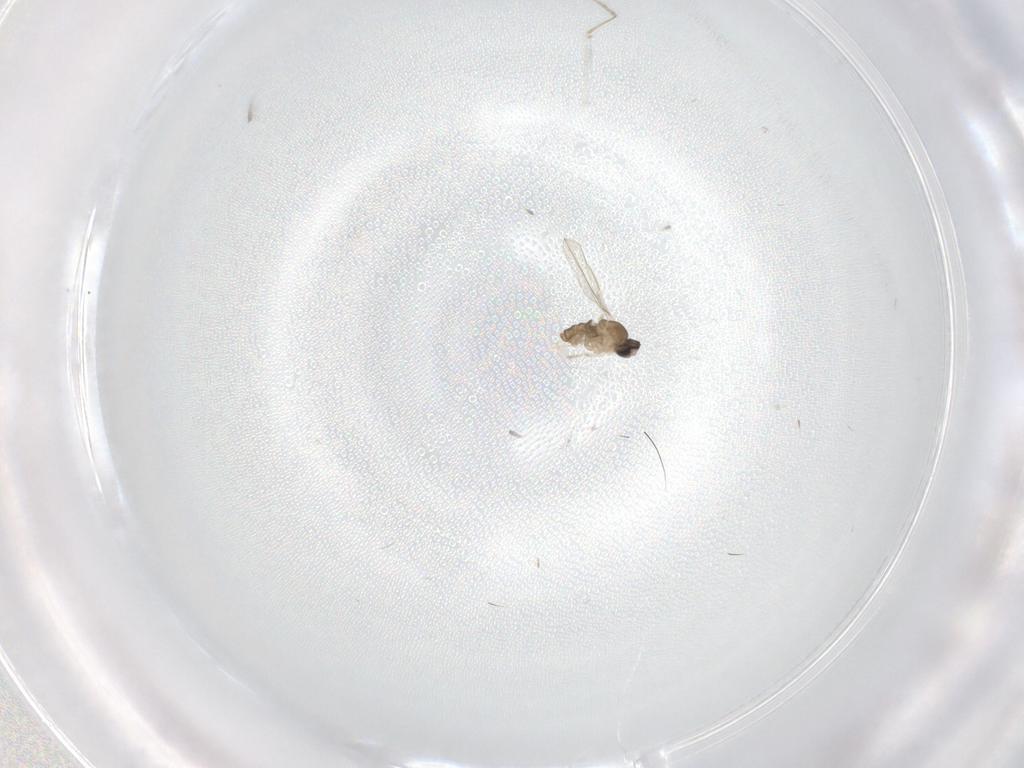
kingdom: Animalia
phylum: Arthropoda
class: Insecta
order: Diptera
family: Cecidomyiidae
